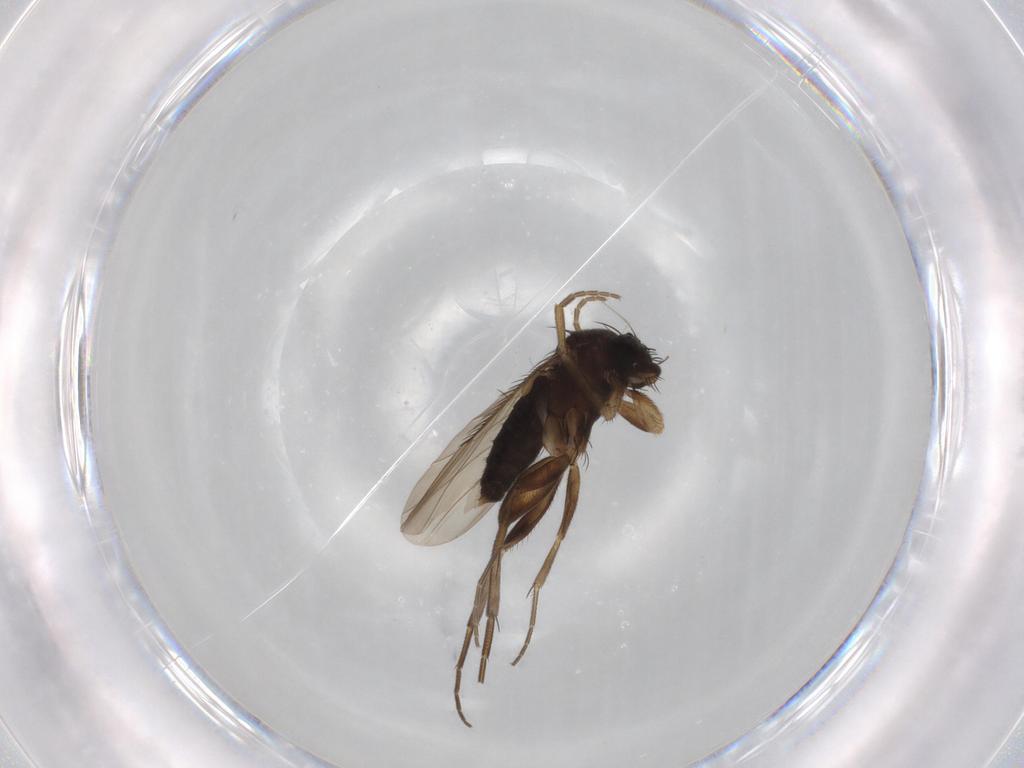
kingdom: Animalia
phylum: Arthropoda
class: Insecta
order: Diptera
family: Phoridae
